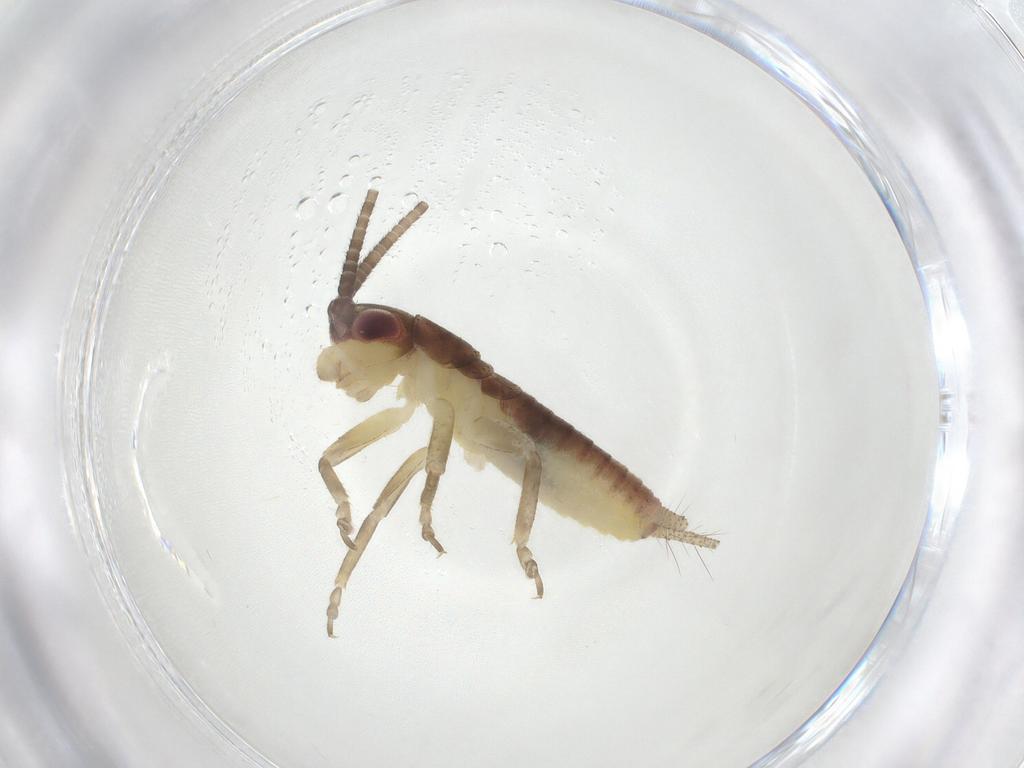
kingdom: Animalia
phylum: Arthropoda
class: Insecta
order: Orthoptera
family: Gryllidae
